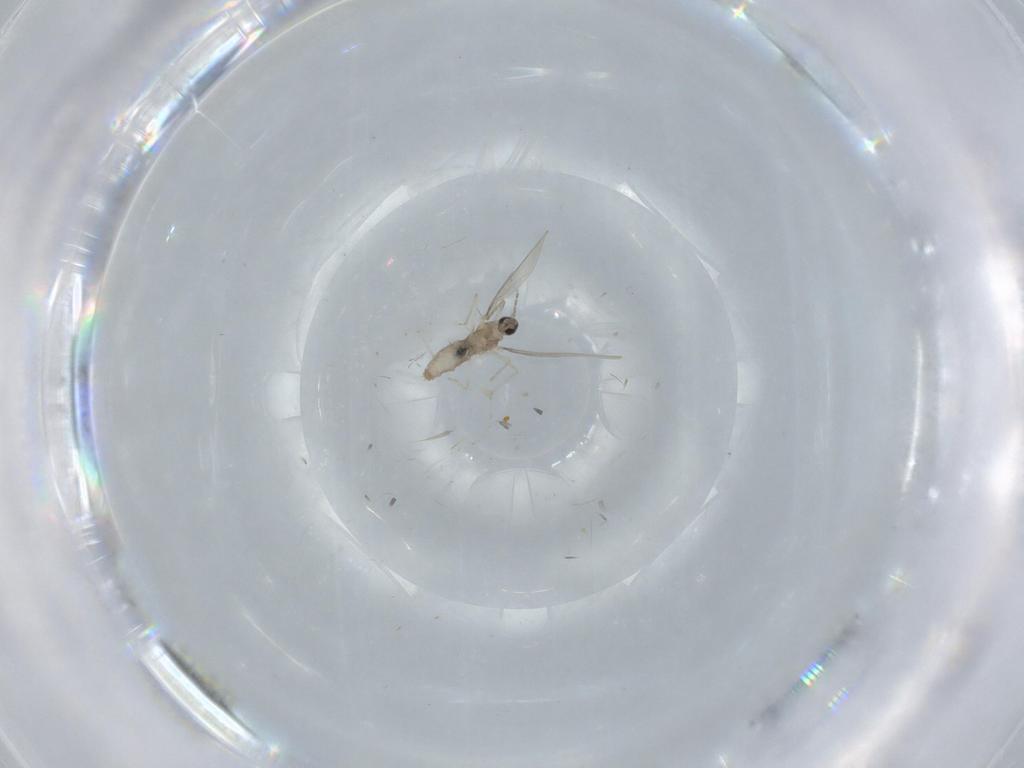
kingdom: Animalia
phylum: Arthropoda
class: Insecta
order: Diptera
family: Cecidomyiidae
